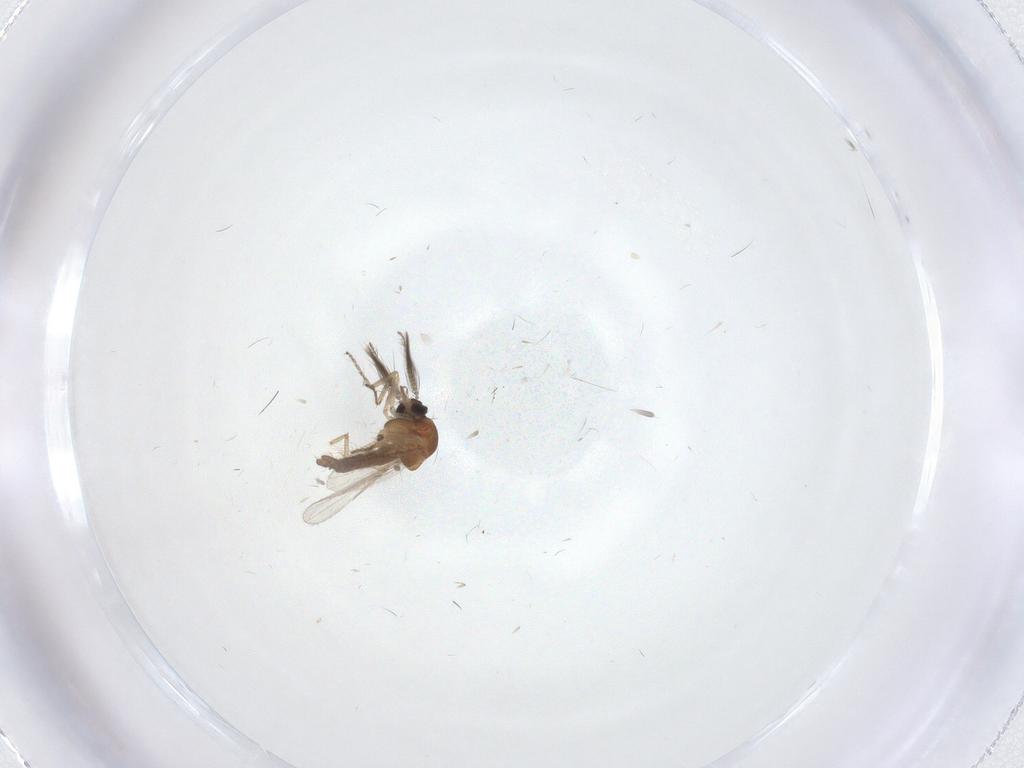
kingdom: Animalia
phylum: Arthropoda
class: Insecta
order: Diptera
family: Ceratopogonidae
